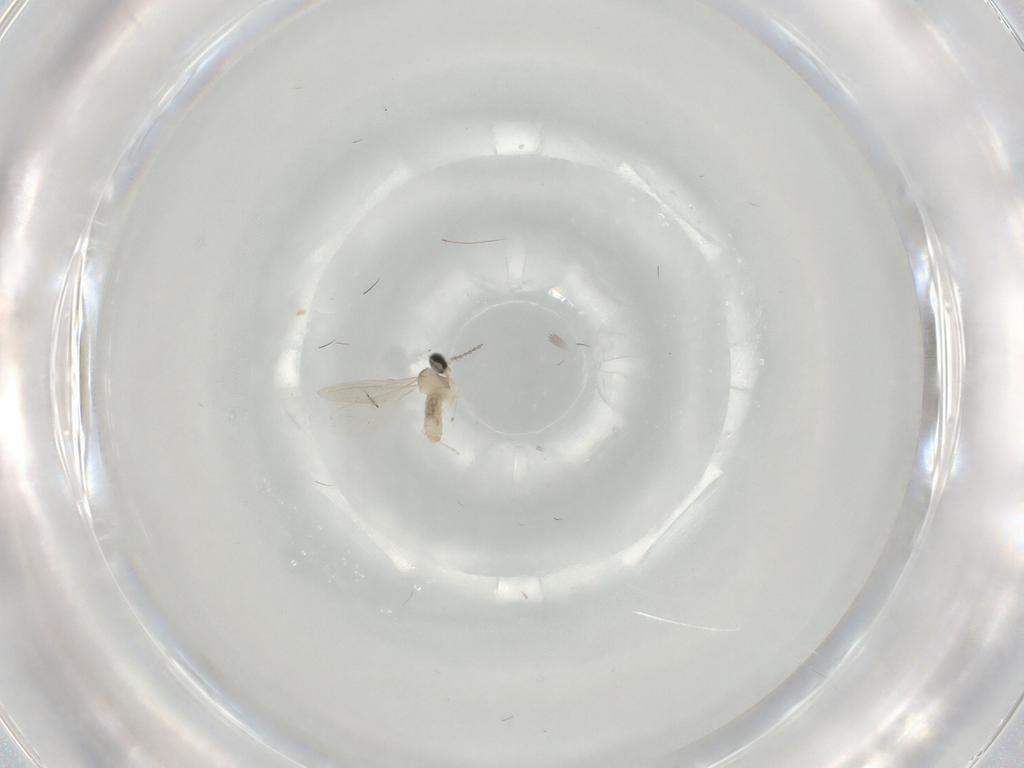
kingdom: Animalia
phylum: Arthropoda
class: Insecta
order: Diptera
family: Cecidomyiidae
